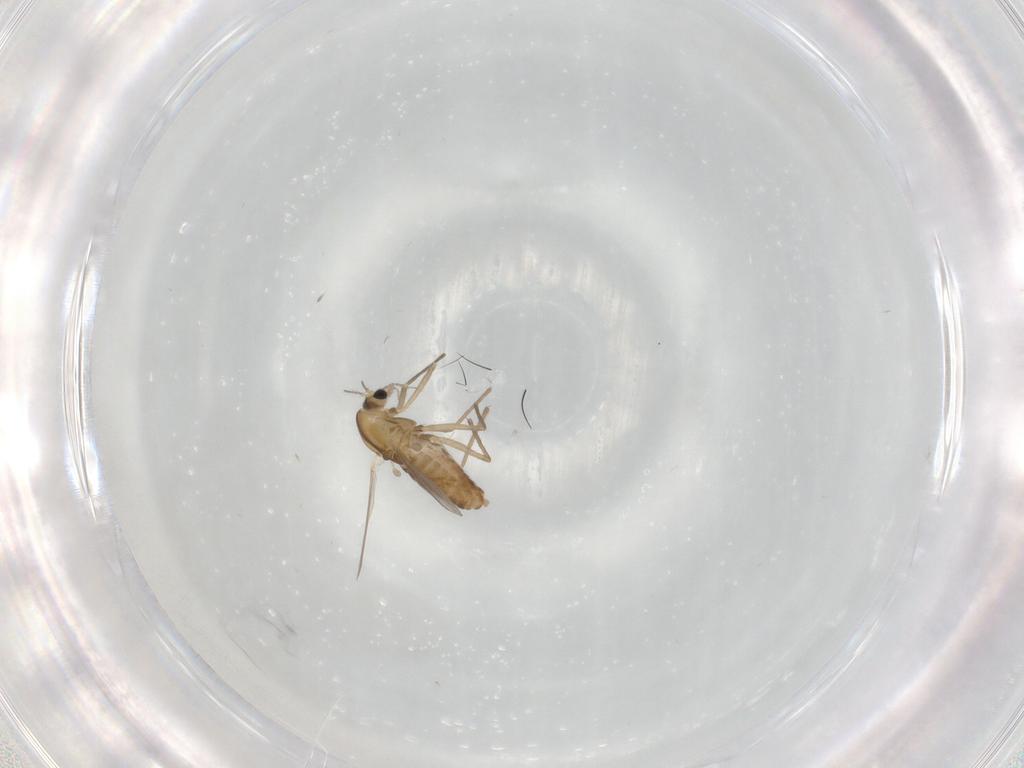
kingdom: Animalia
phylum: Arthropoda
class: Insecta
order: Diptera
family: Chironomidae
